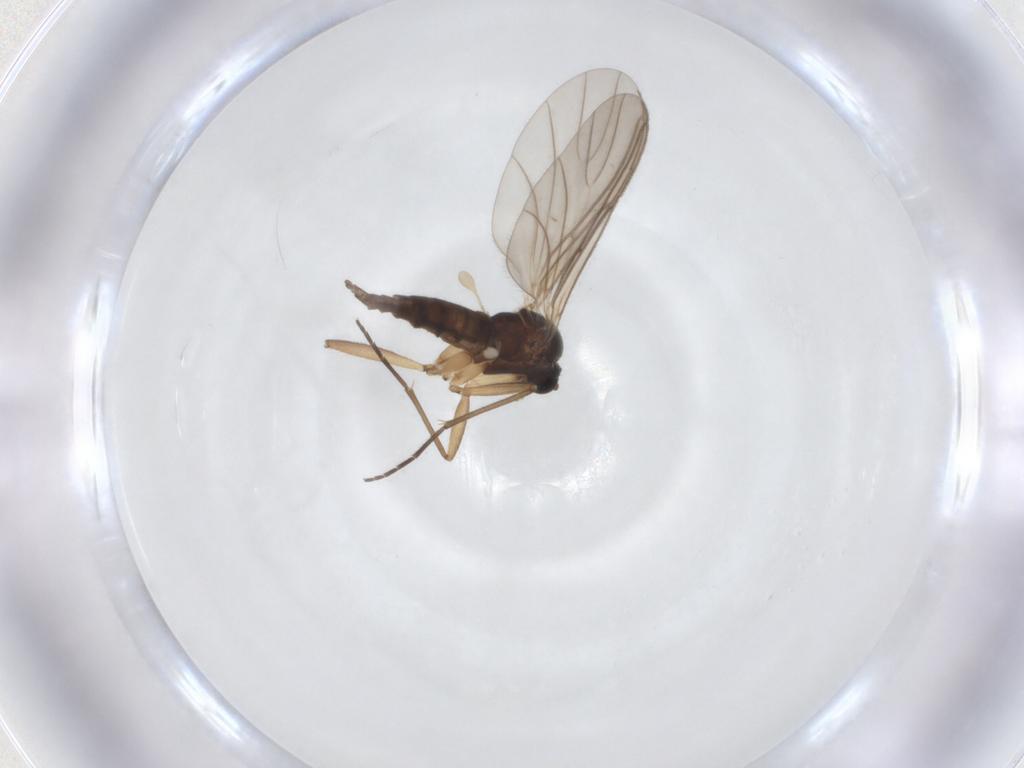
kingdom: Animalia
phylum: Arthropoda
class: Insecta
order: Diptera
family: Sciaridae
